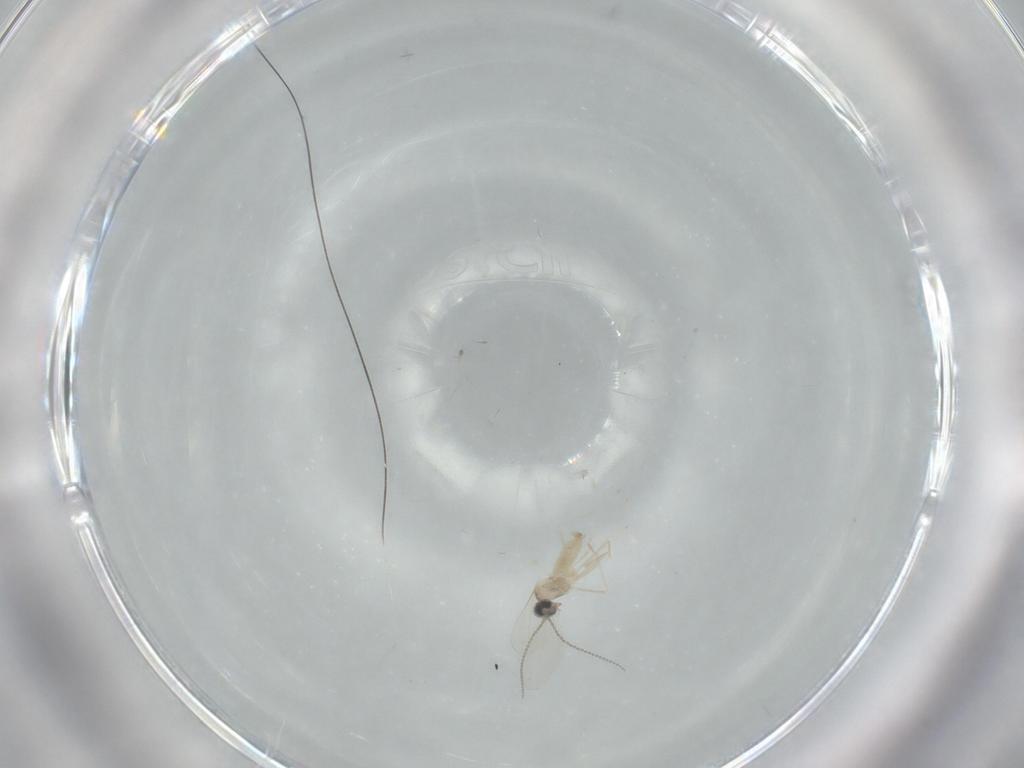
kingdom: Animalia
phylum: Arthropoda
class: Insecta
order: Diptera
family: Cecidomyiidae
